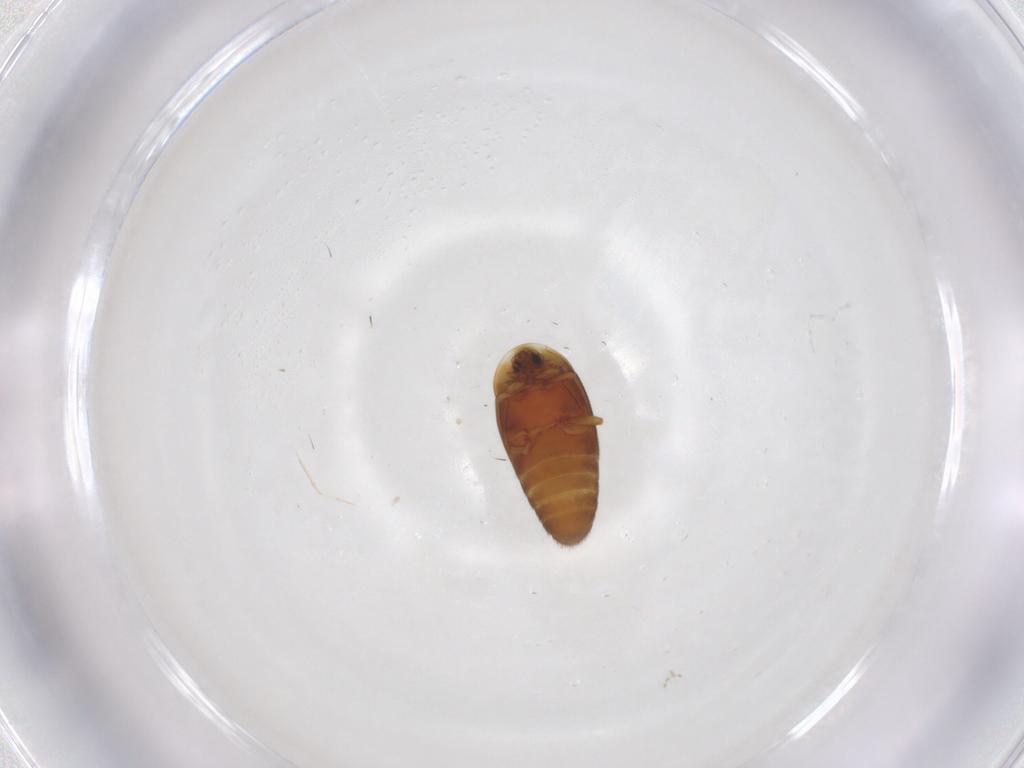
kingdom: Animalia
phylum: Arthropoda
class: Insecta
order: Coleoptera
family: Corylophidae
